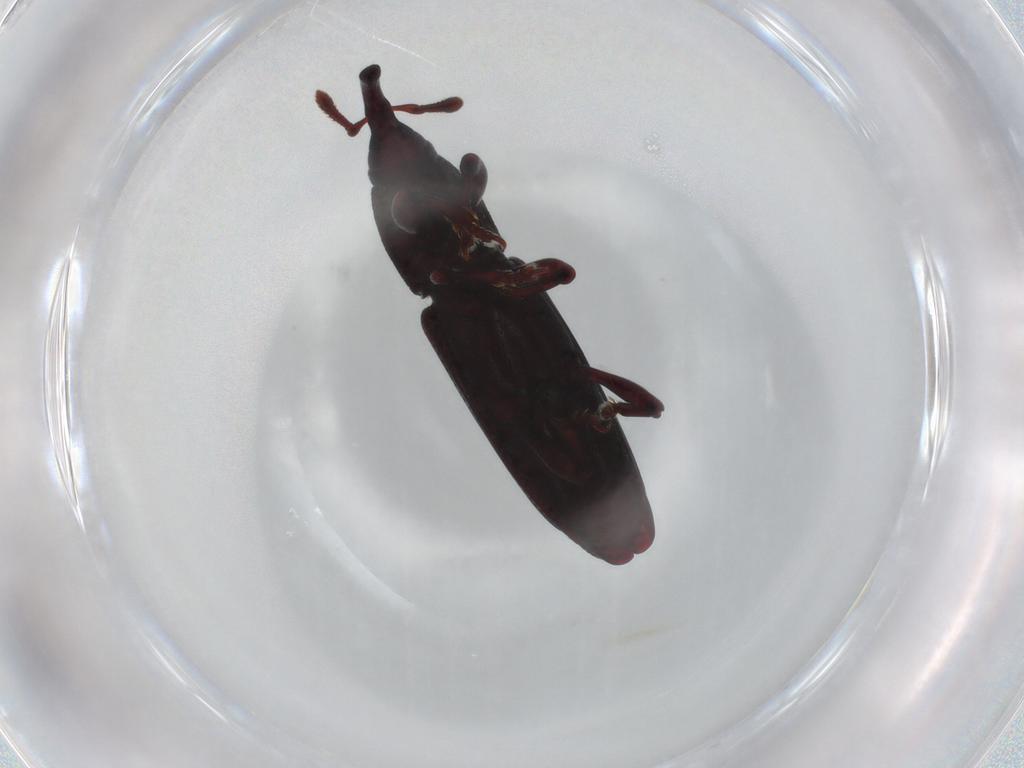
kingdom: Animalia
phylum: Arthropoda
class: Insecta
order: Coleoptera
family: Curculionidae
